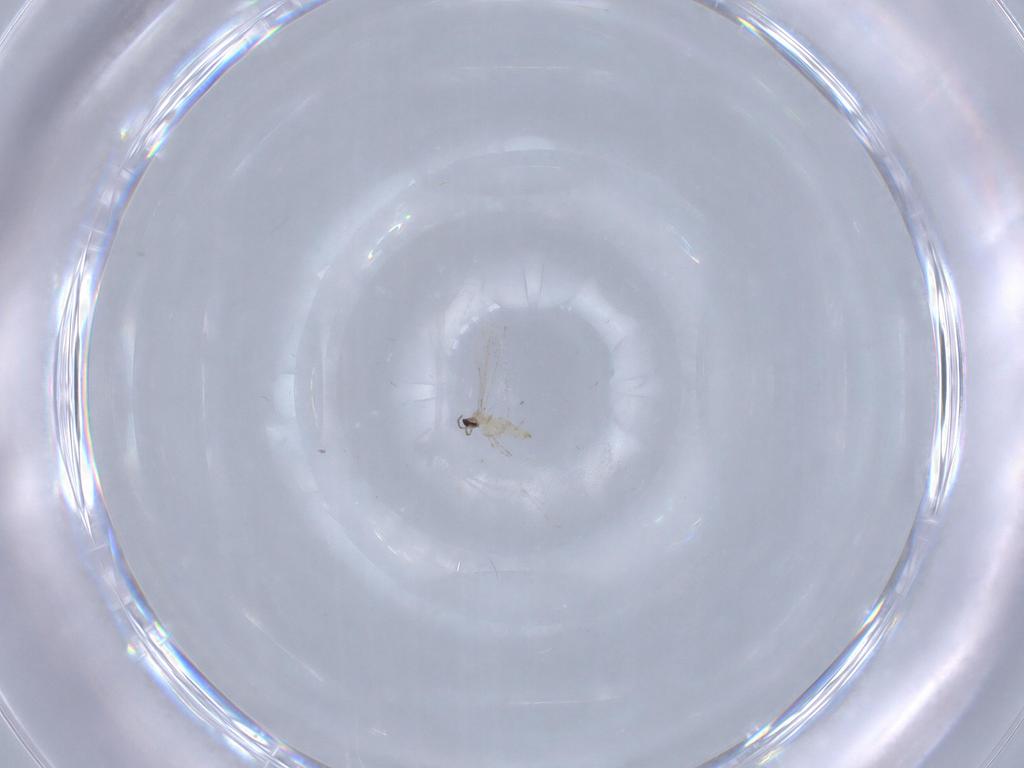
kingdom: Animalia
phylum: Arthropoda
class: Insecta
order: Diptera
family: Cecidomyiidae
